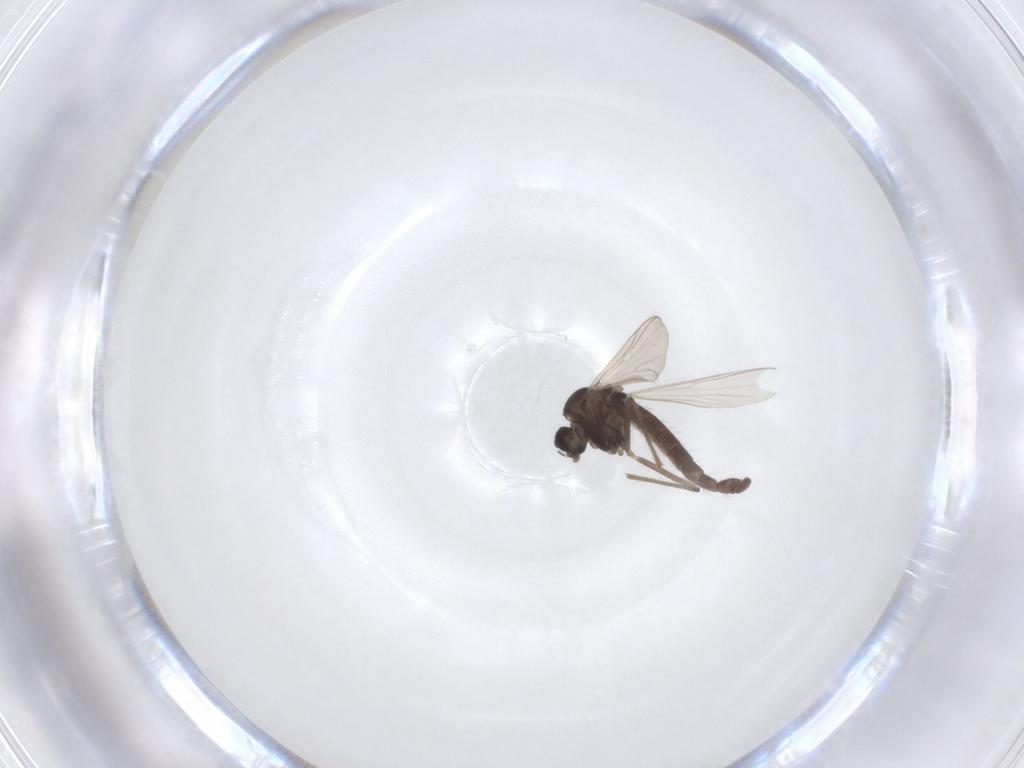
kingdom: Animalia
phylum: Arthropoda
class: Insecta
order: Diptera
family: Chironomidae
